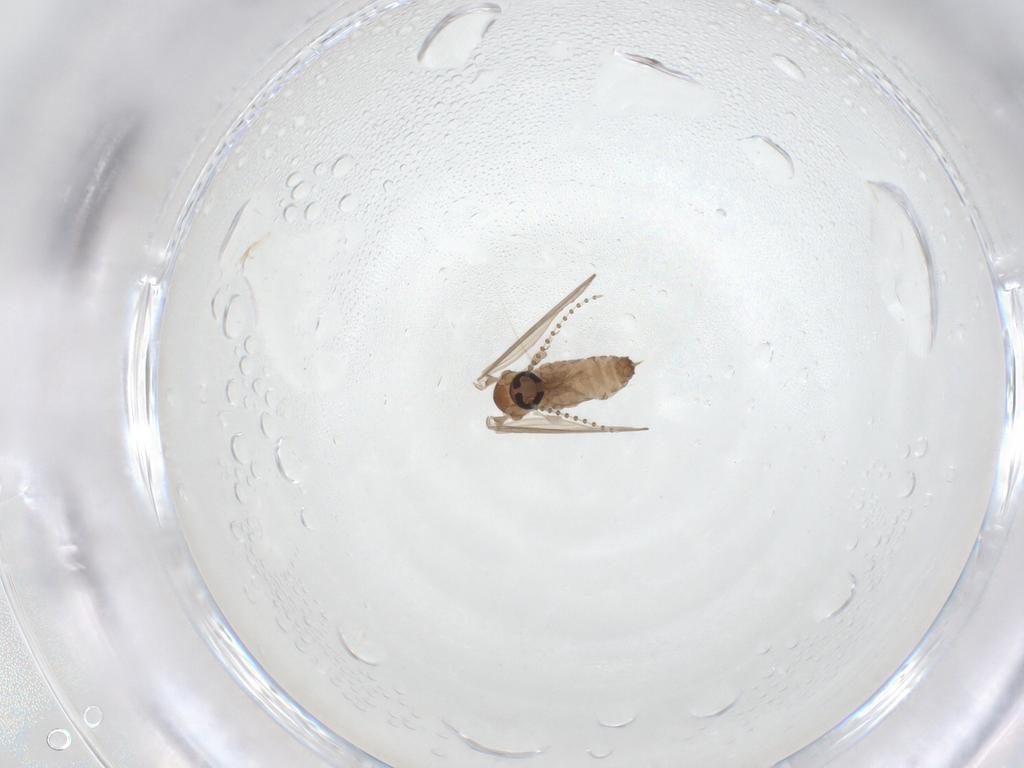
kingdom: Animalia
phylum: Arthropoda
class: Insecta
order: Diptera
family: Psychodidae
